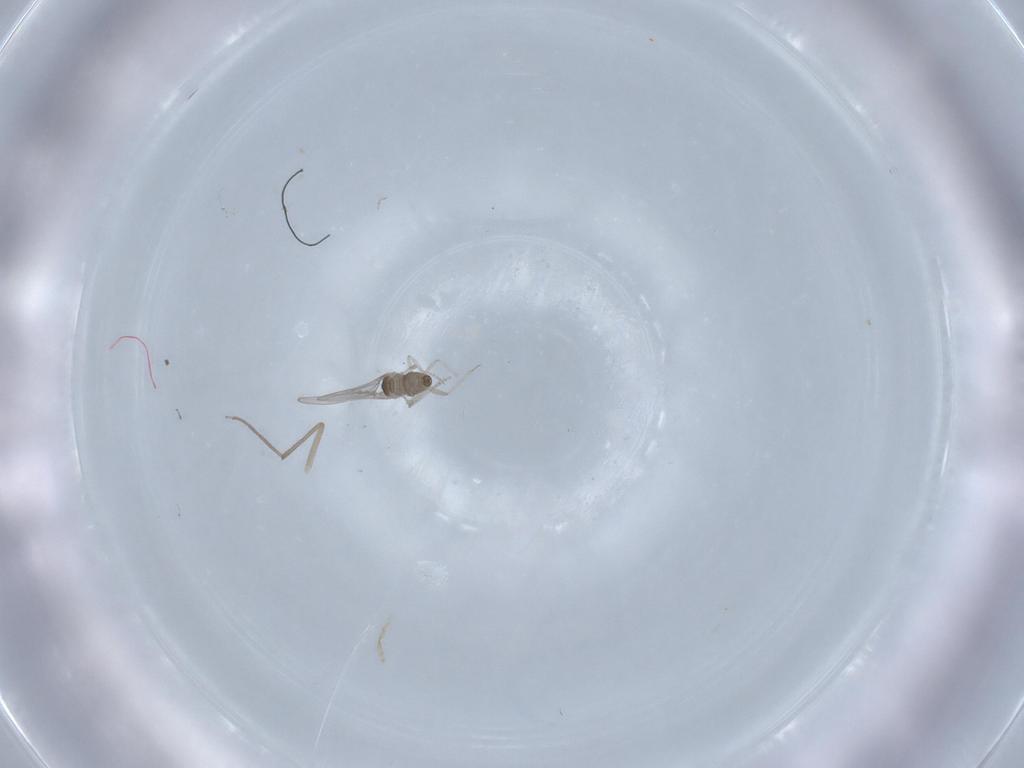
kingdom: Animalia
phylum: Arthropoda
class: Insecta
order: Diptera
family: Cecidomyiidae
